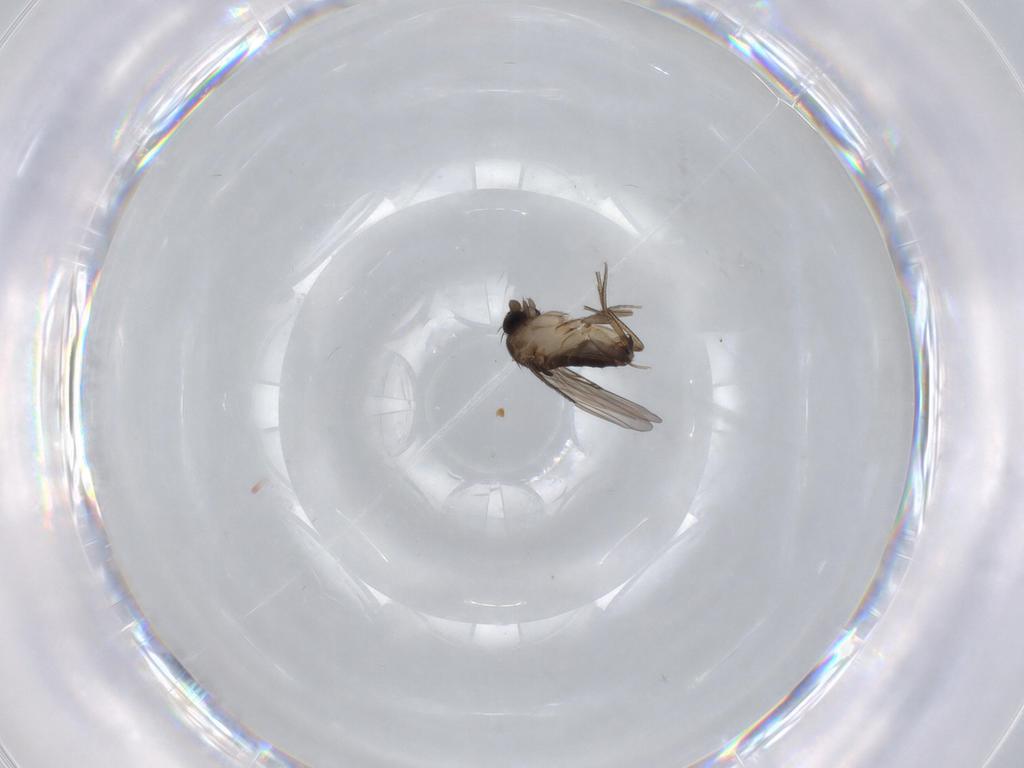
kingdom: Animalia
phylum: Arthropoda
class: Insecta
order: Diptera
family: Phoridae
